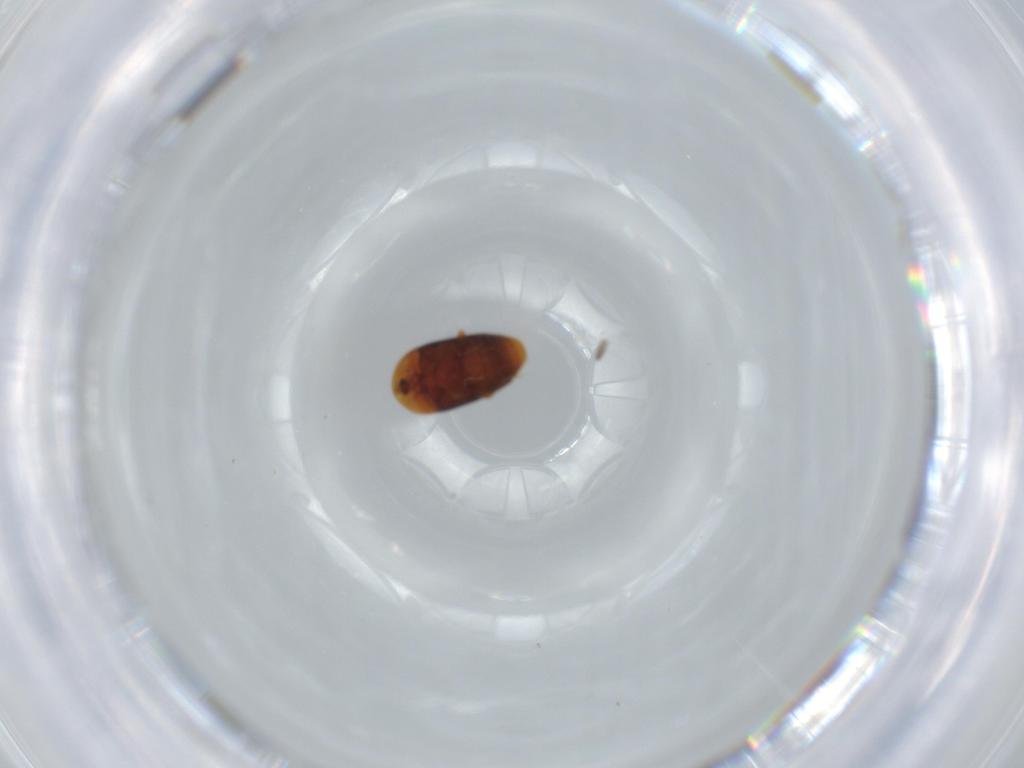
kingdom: Animalia
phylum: Arthropoda
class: Insecta
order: Coleoptera
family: Corylophidae
